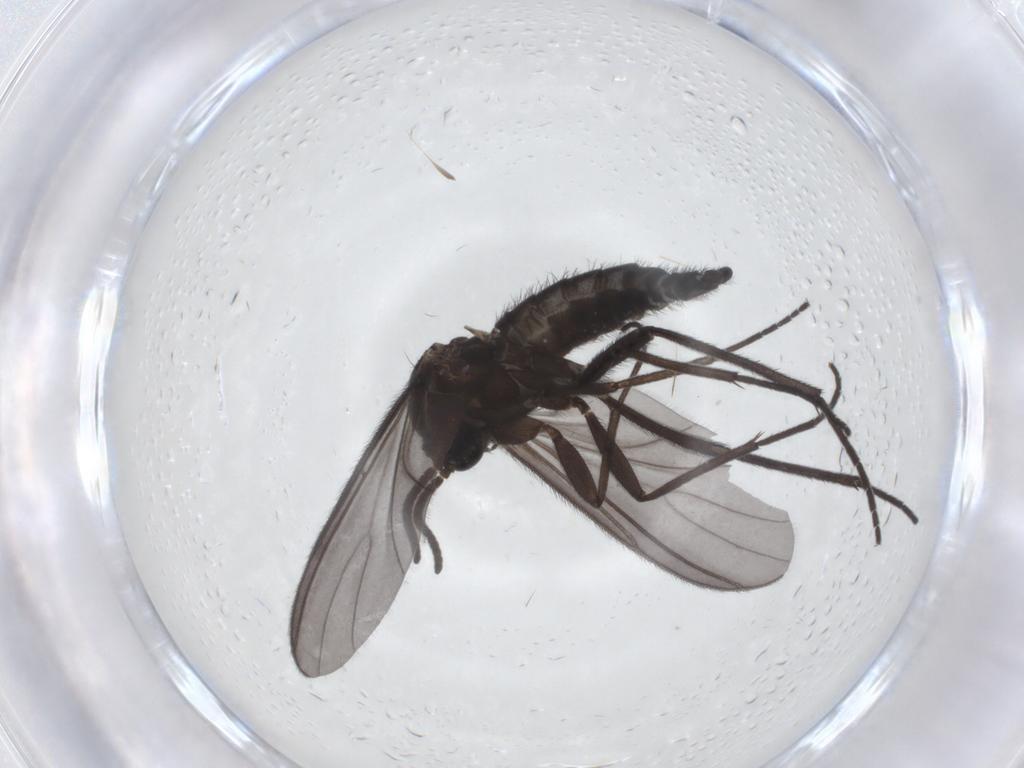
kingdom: Animalia
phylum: Arthropoda
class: Insecta
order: Diptera
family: Sciaridae
